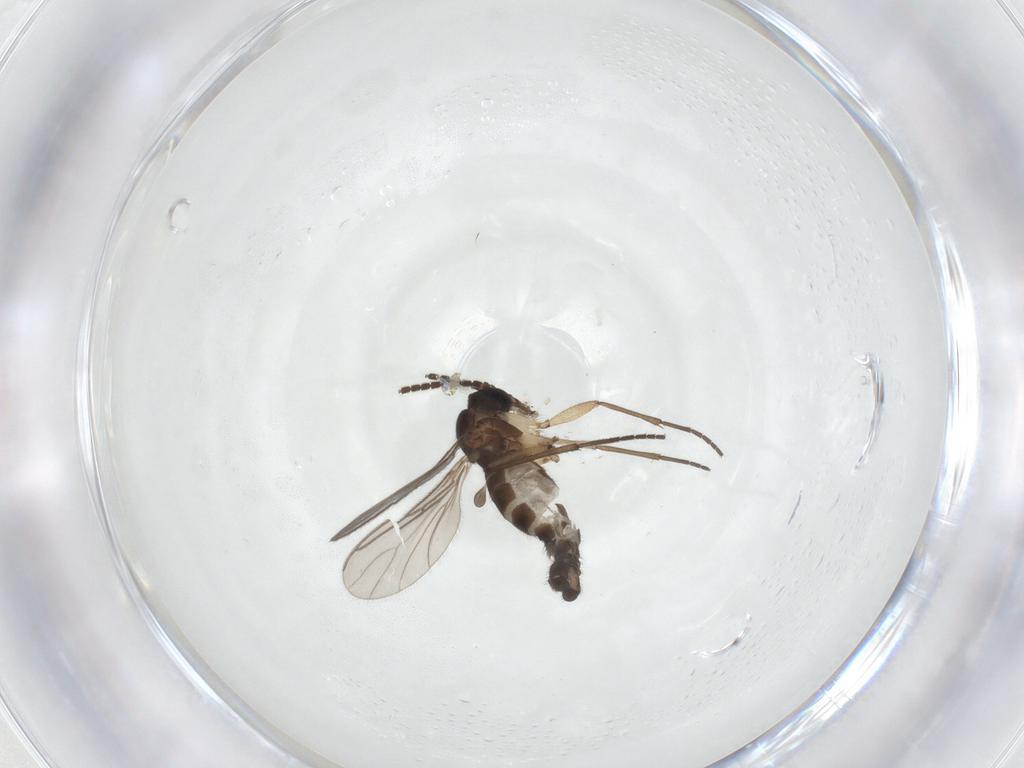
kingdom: Animalia
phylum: Arthropoda
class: Insecta
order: Diptera
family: Sciaridae
